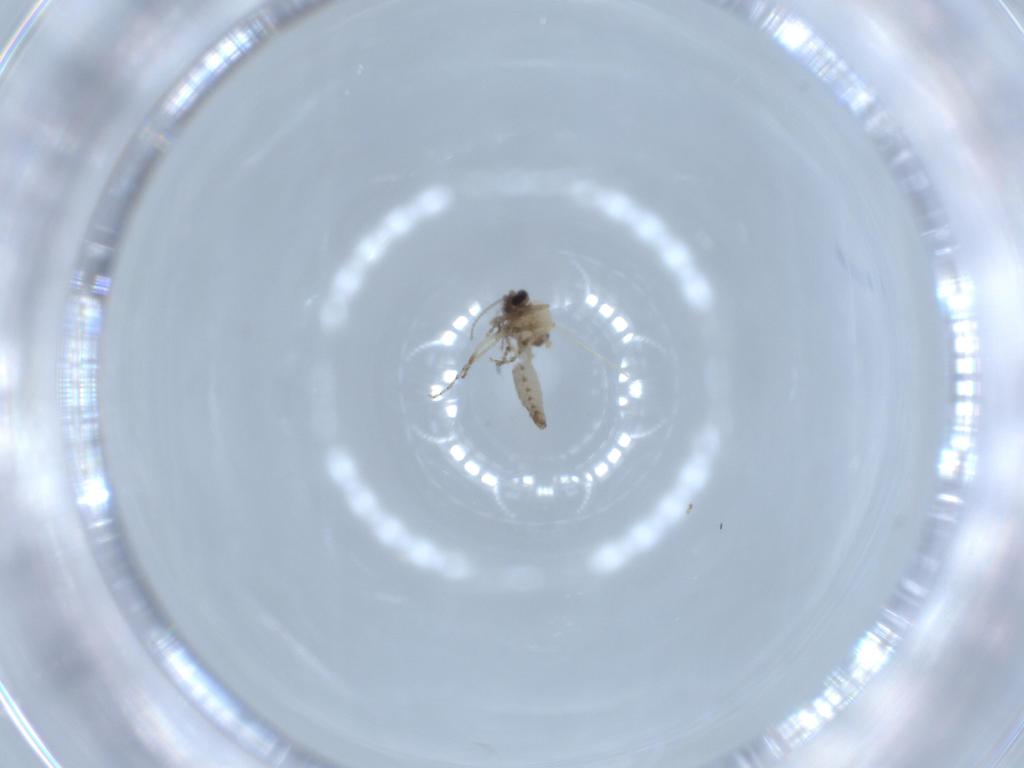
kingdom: Animalia
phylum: Arthropoda
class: Insecta
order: Diptera
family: Ceratopogonidae
